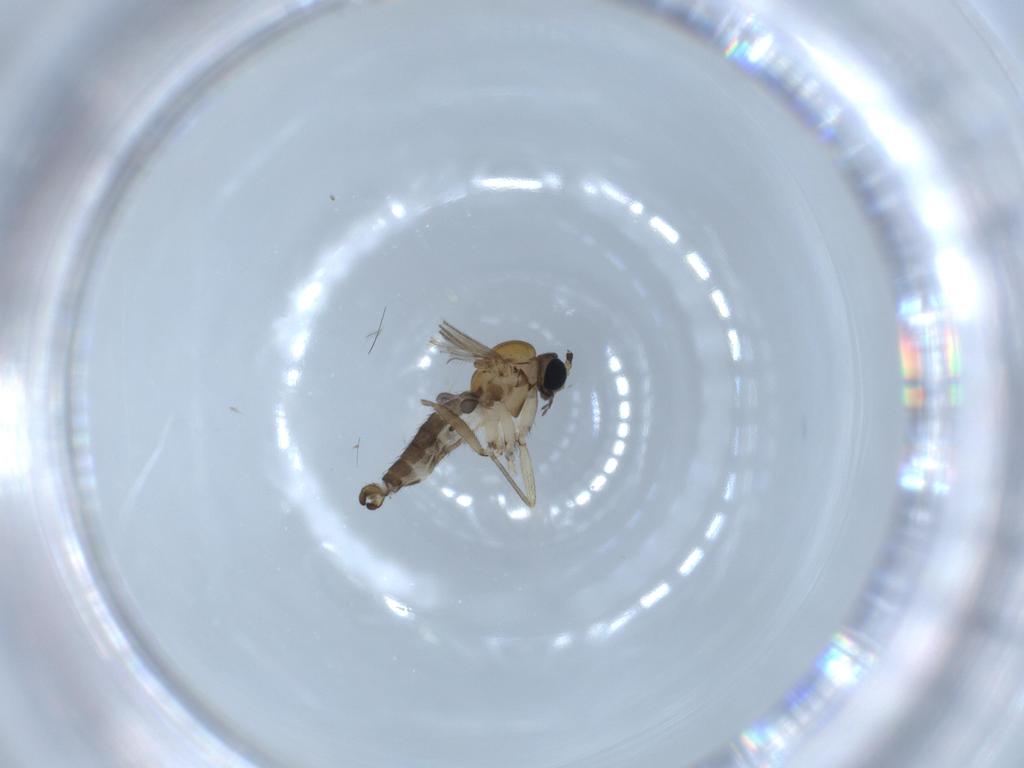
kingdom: Animalia
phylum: Arthropoda
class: Insecta
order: Diptera
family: Sciaridae
